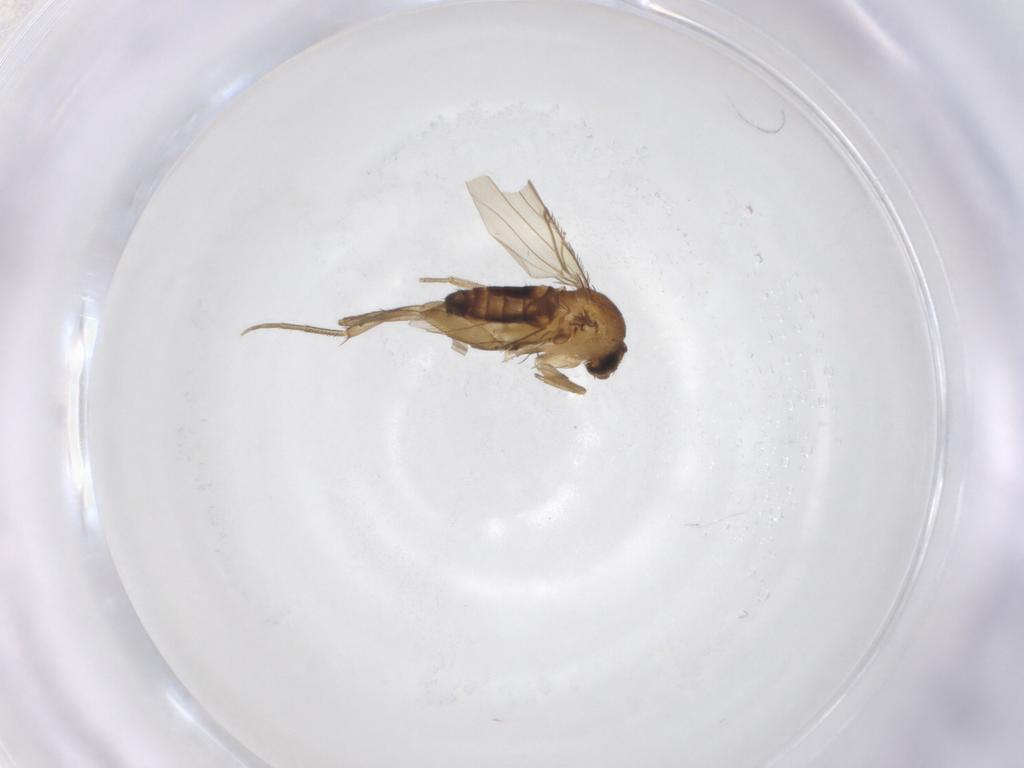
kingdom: Animalia
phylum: Arthropoda
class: Insecta
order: Diptera
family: Phoridae
